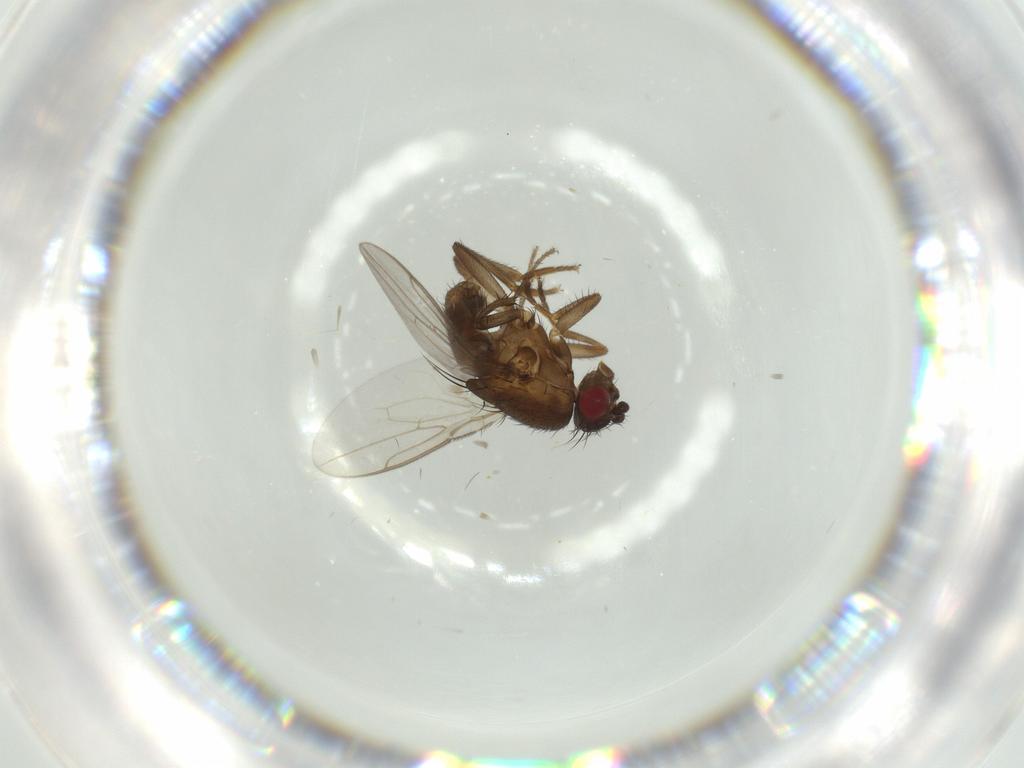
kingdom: Animalia
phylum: Arthropoda
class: Insecta
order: Diptera
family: Sphaeroceridae
